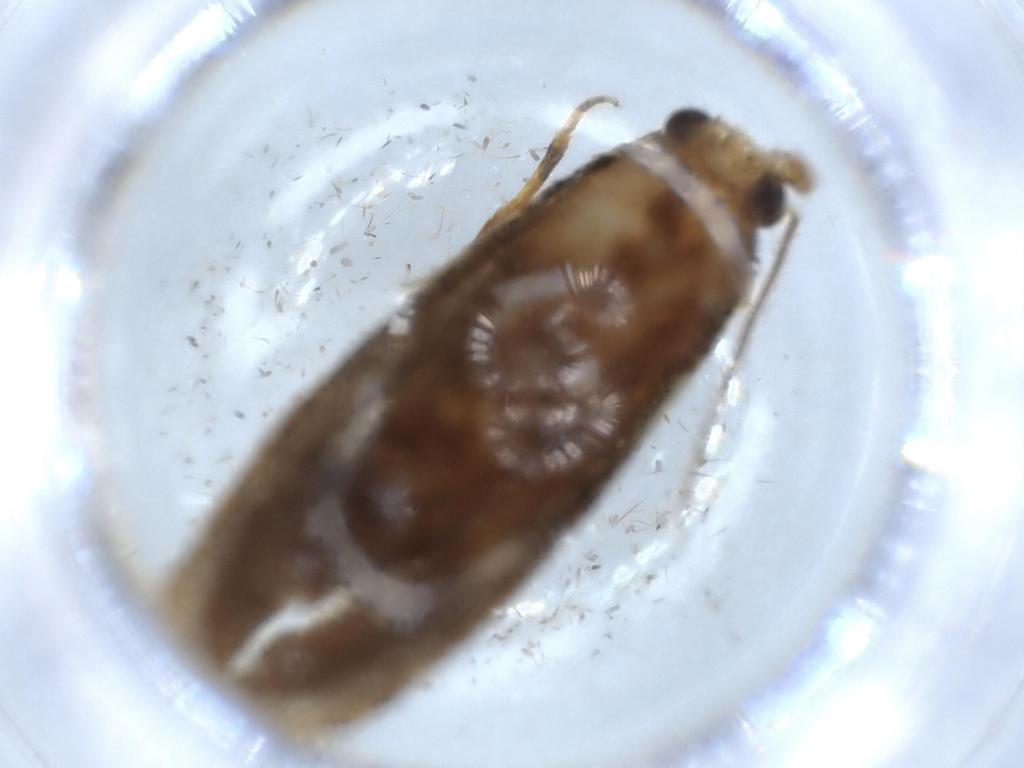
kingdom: Animalia
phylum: Arthropoda
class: Insecta
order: Lepidoptera
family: Tineidae
